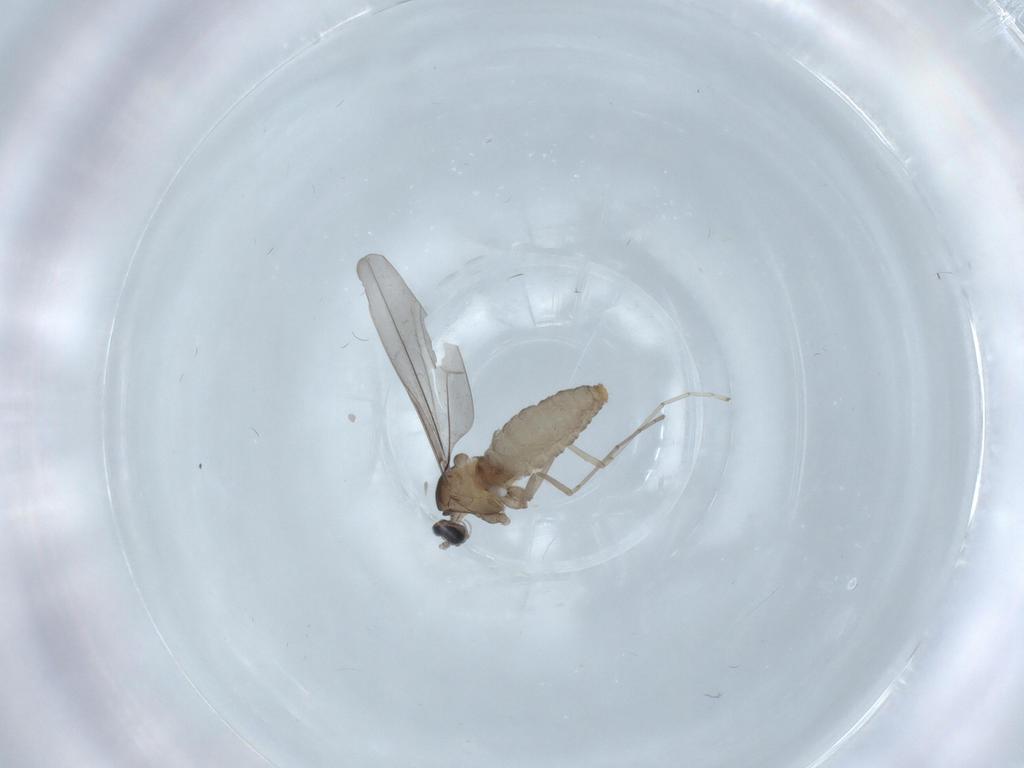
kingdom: Animalia
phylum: Arthropoda
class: Insecta
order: Diptera
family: Cecidomyiidae
